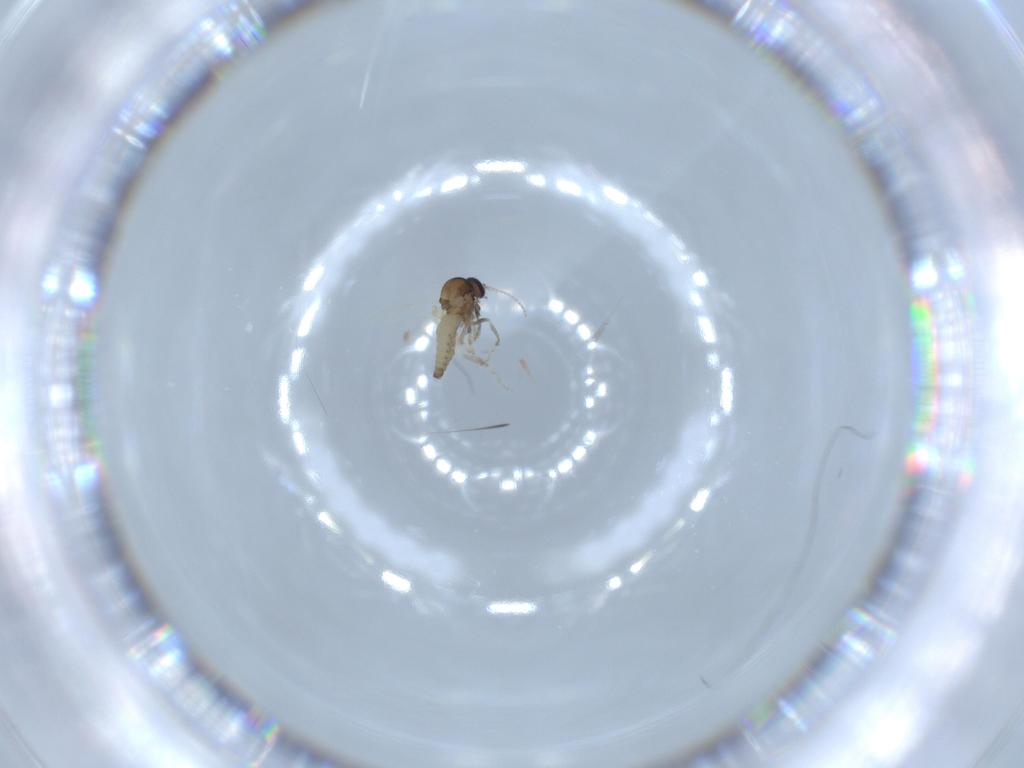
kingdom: Animalia
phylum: Arthropoda
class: Insecta
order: Diptera
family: Ceratopogonidae
